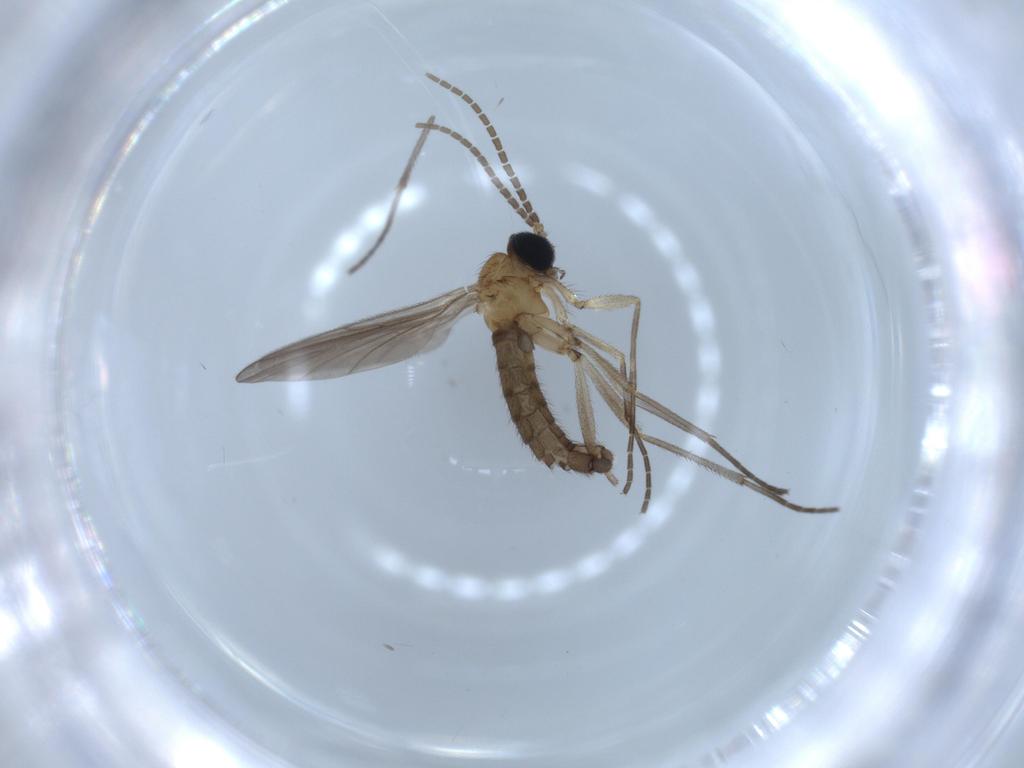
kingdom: Animalia
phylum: Arthropoda
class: Insecta
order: Diptera
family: Sciaridae
